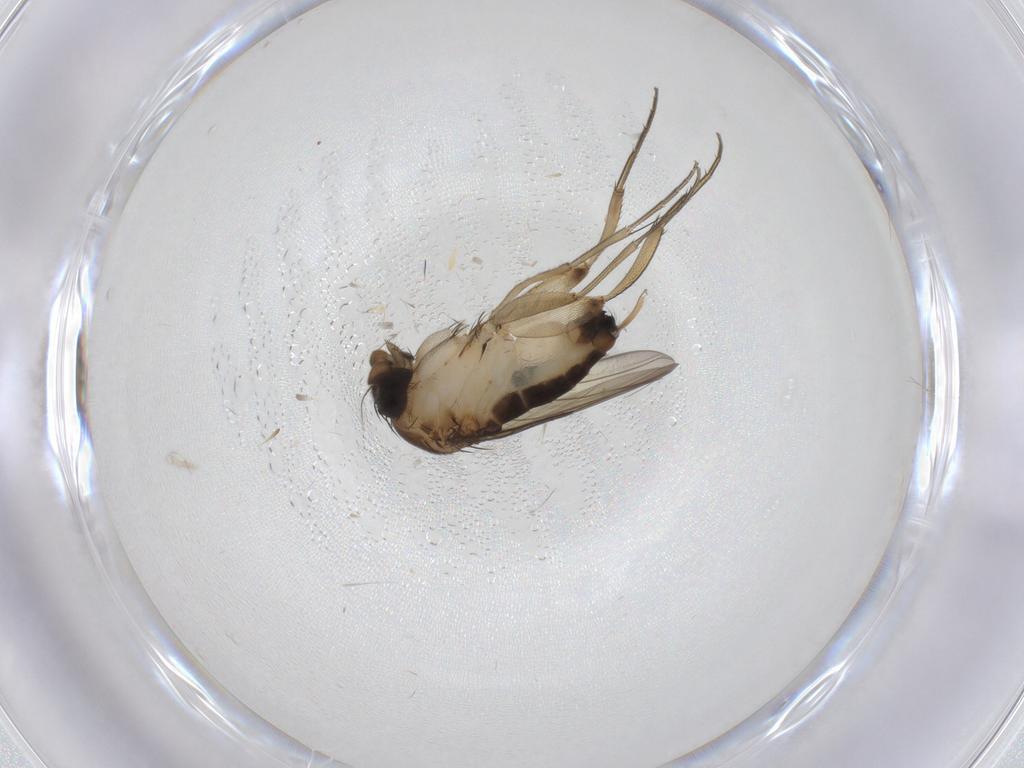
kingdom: Animalia
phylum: Arthropoda
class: Insecta
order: Diptera
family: Phoridae
